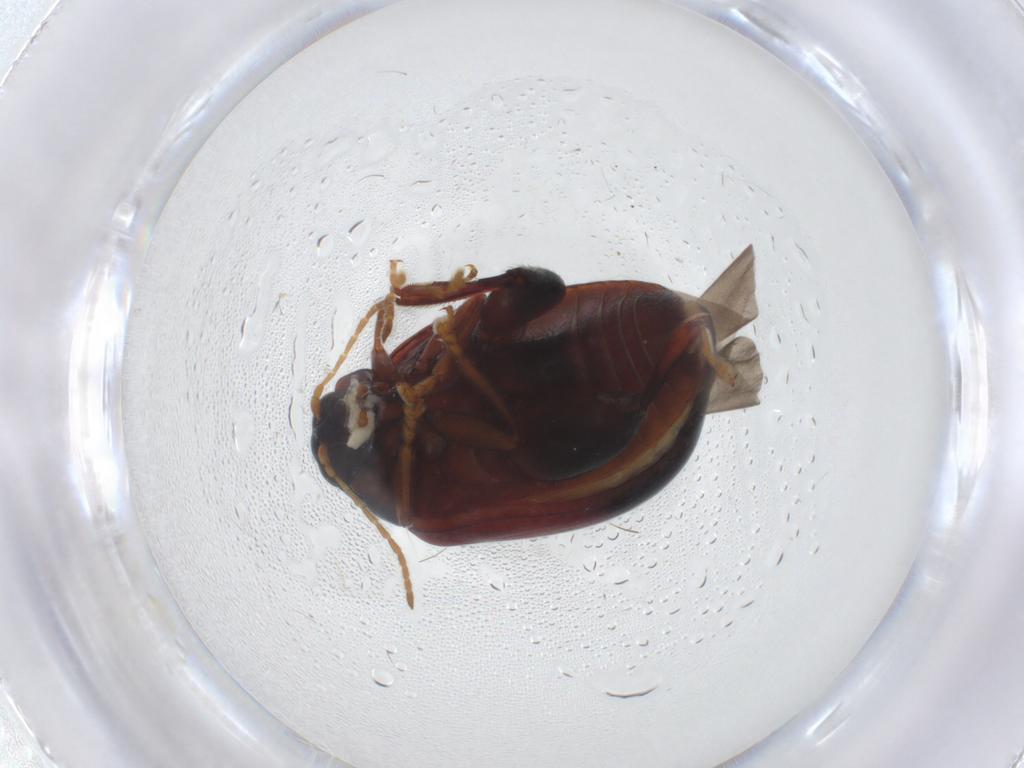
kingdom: Animalia
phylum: Arthropoda
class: Insecta
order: Coleoptera
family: Chrysomelidae
